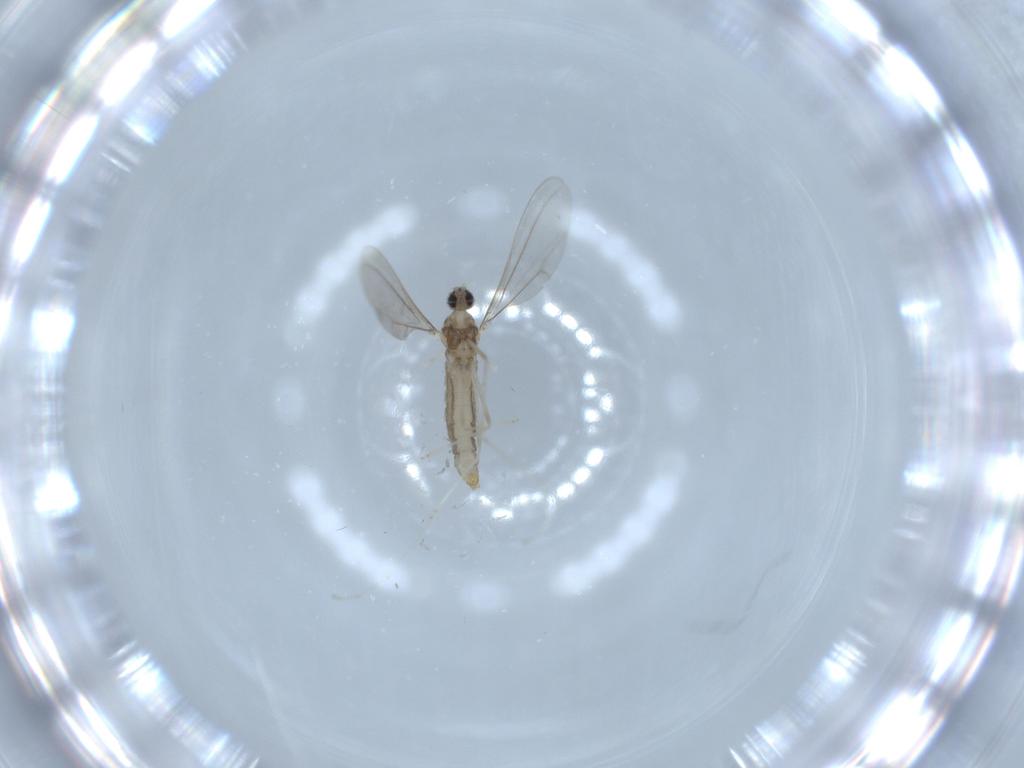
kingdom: Animalia
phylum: Arthropoda
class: Insecta
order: Diptera
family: Cecidomyiidae
